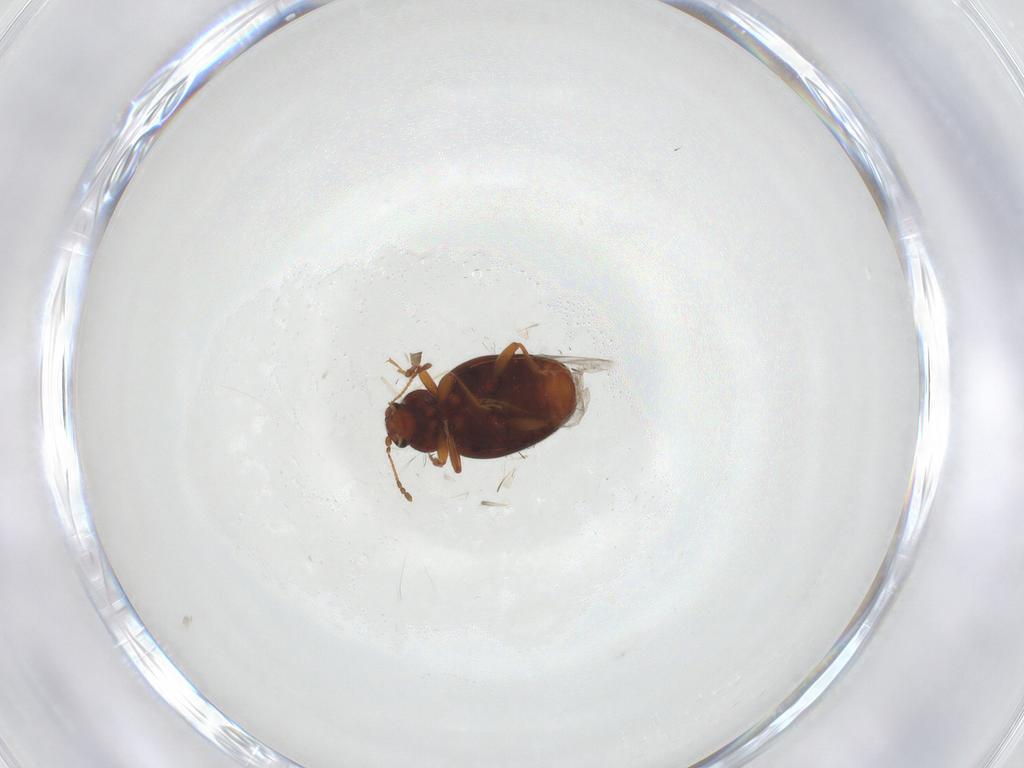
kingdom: Animalia
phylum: Arthropoda
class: Insecta
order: Coleoptera
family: Latridiidae
